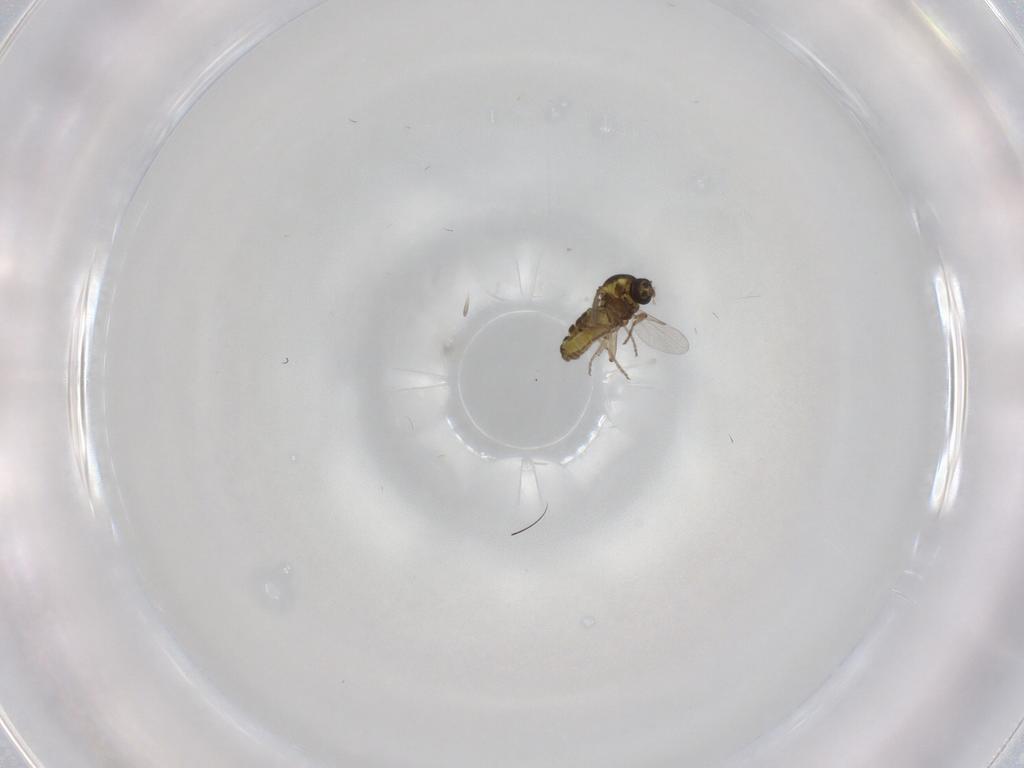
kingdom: Animalia
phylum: Arthropoda
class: Insecta
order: Diptera
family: Ceratopogonidae
